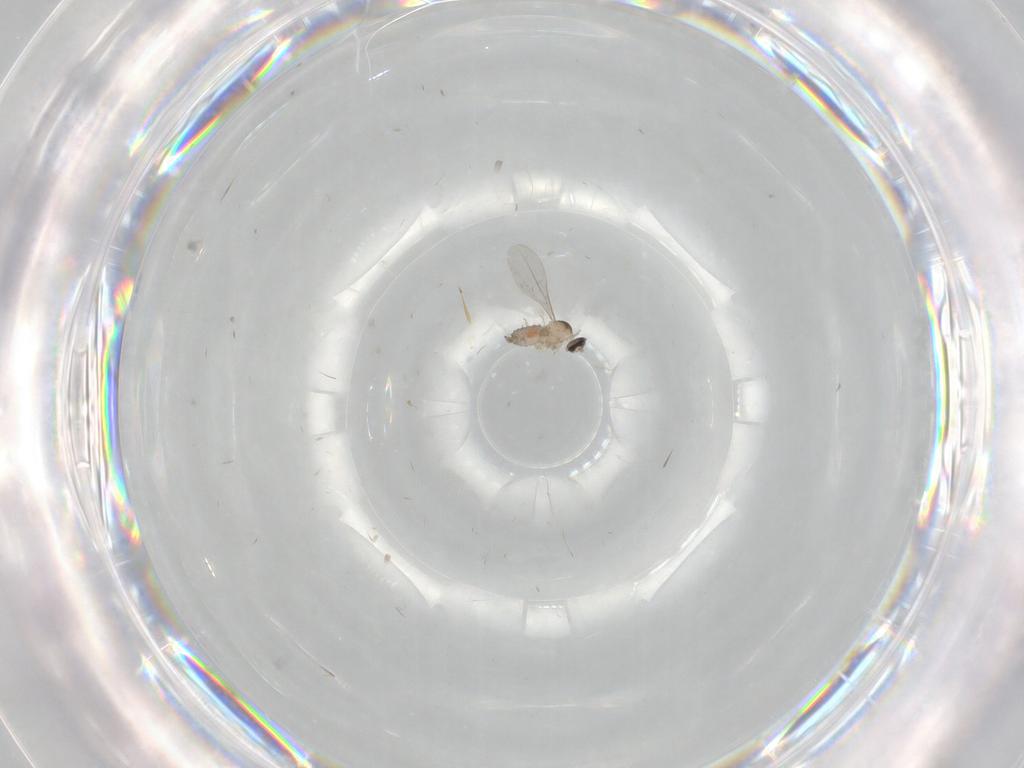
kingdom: Animalia
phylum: Arthropoda
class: Insecta
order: Diptera
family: Cecidomyiidae
